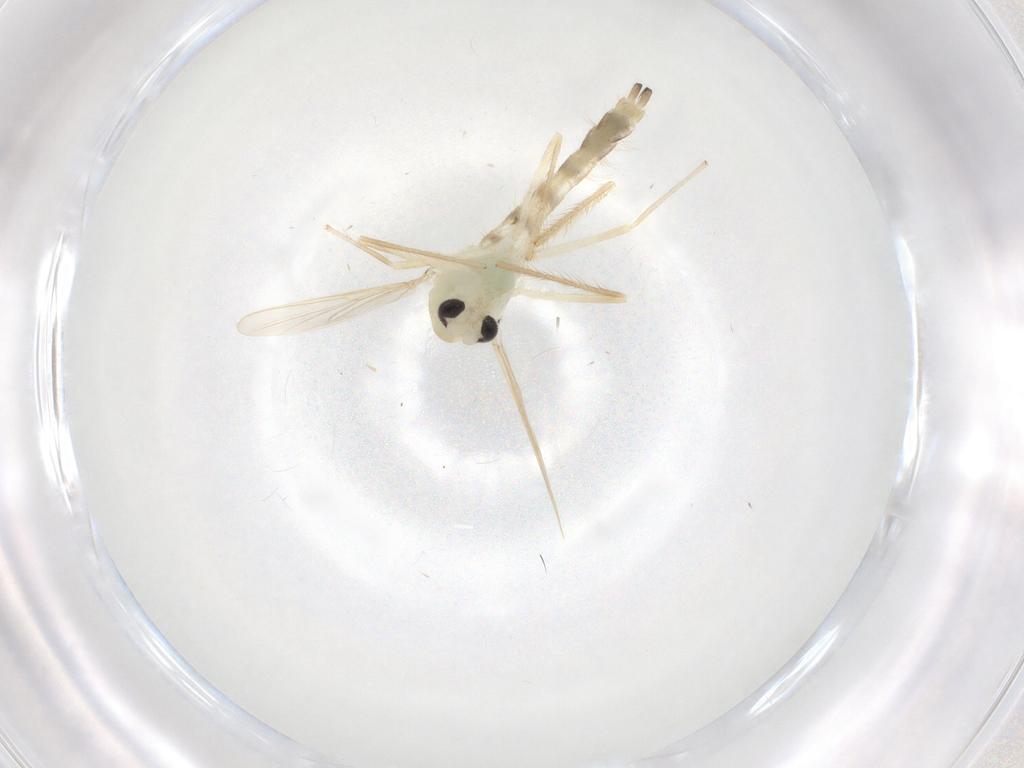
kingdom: Animalia
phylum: Arthropoda
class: Insecta
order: Diptera
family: Chironomidae
